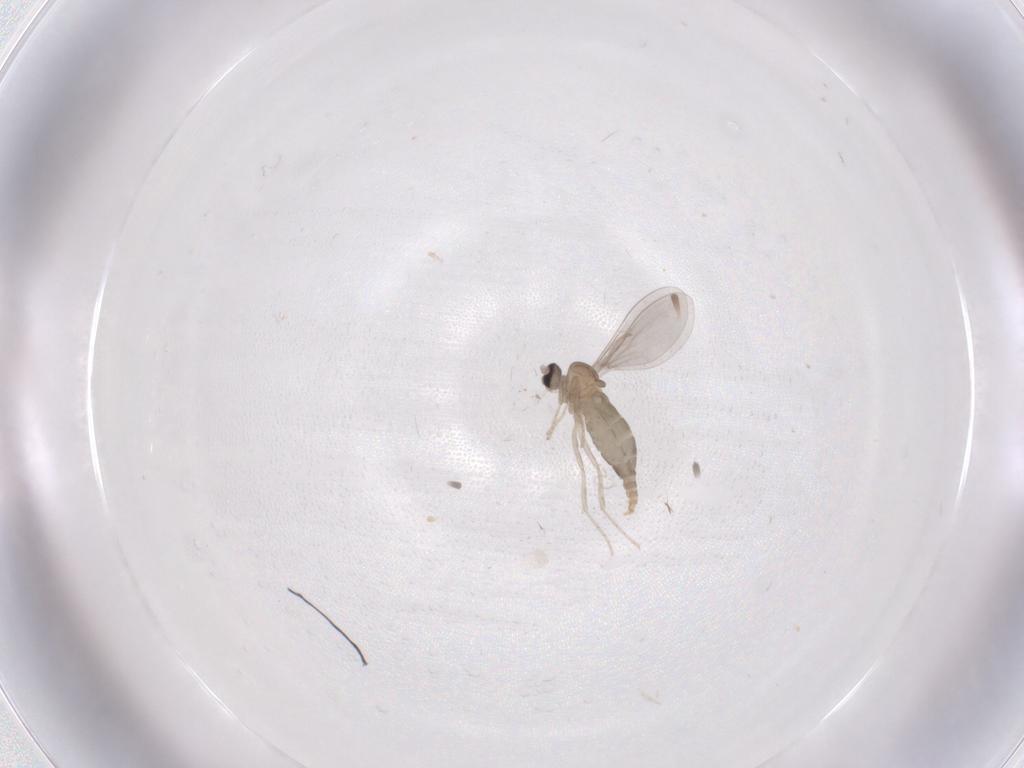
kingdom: Animalia
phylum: Arthropoda
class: Insecta
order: Diptera
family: Cecidomyiidae
